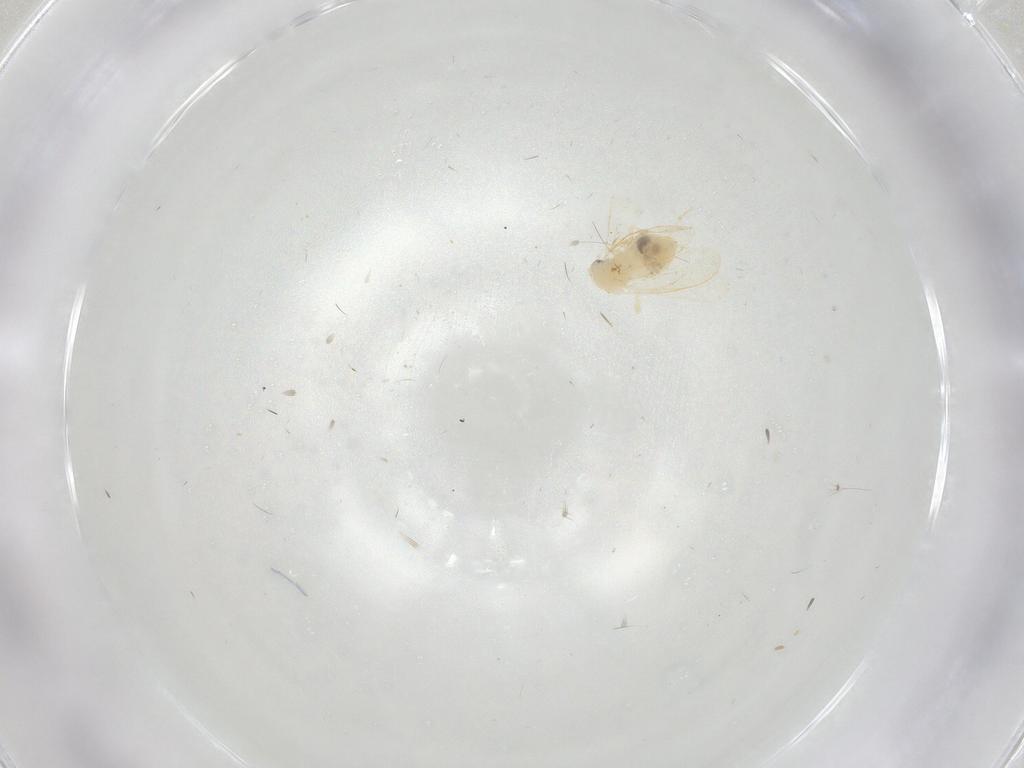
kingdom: Animalia
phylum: Arthropoda
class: Insecta
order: Hemiptera
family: Aleyrodidae
